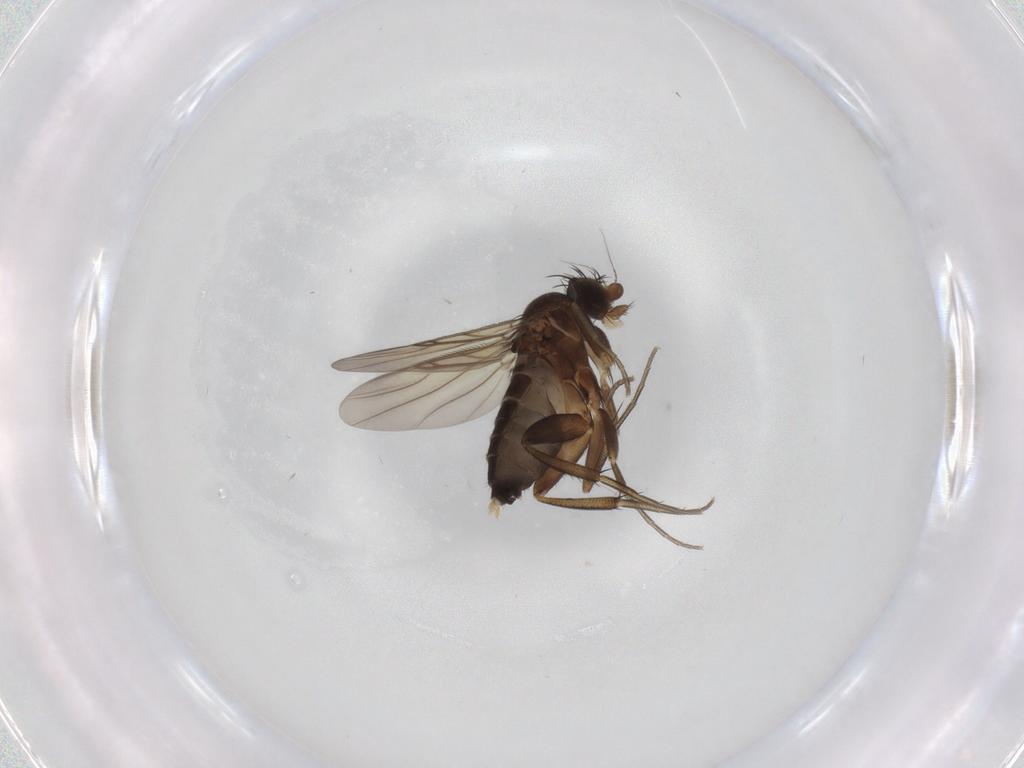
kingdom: Animalia
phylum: Arthropoda
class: Insecta
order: Diptera
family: Phoridae
